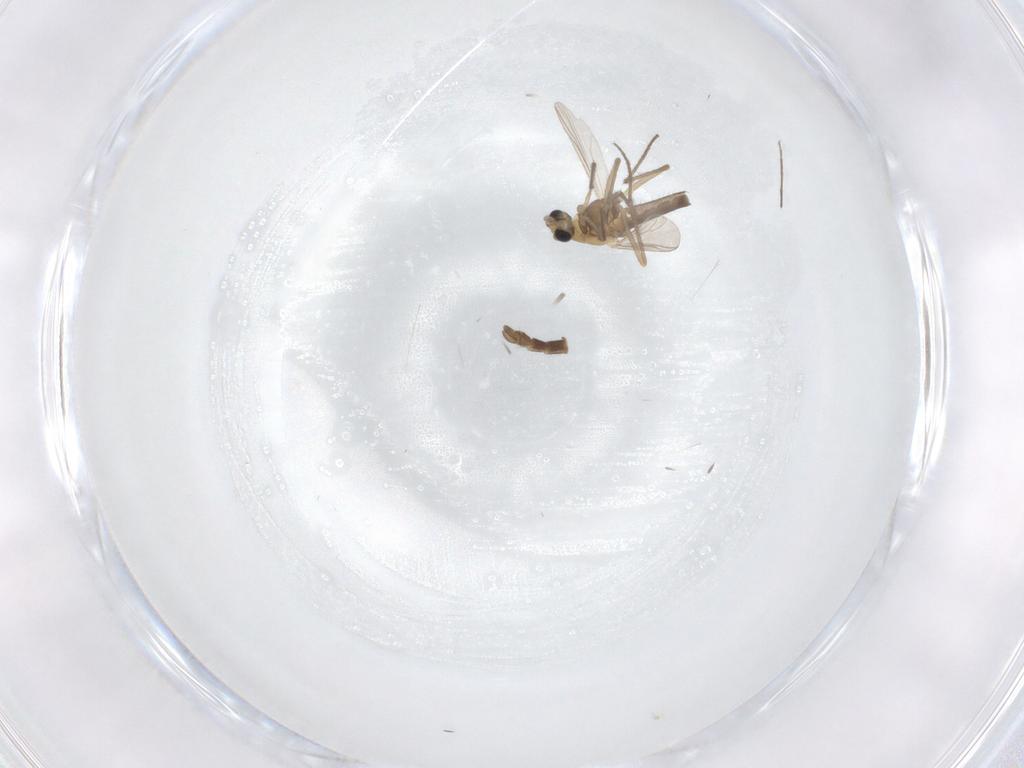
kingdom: Animalia
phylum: Arthropoda
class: Insecta
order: Diptera
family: Chironomidae
